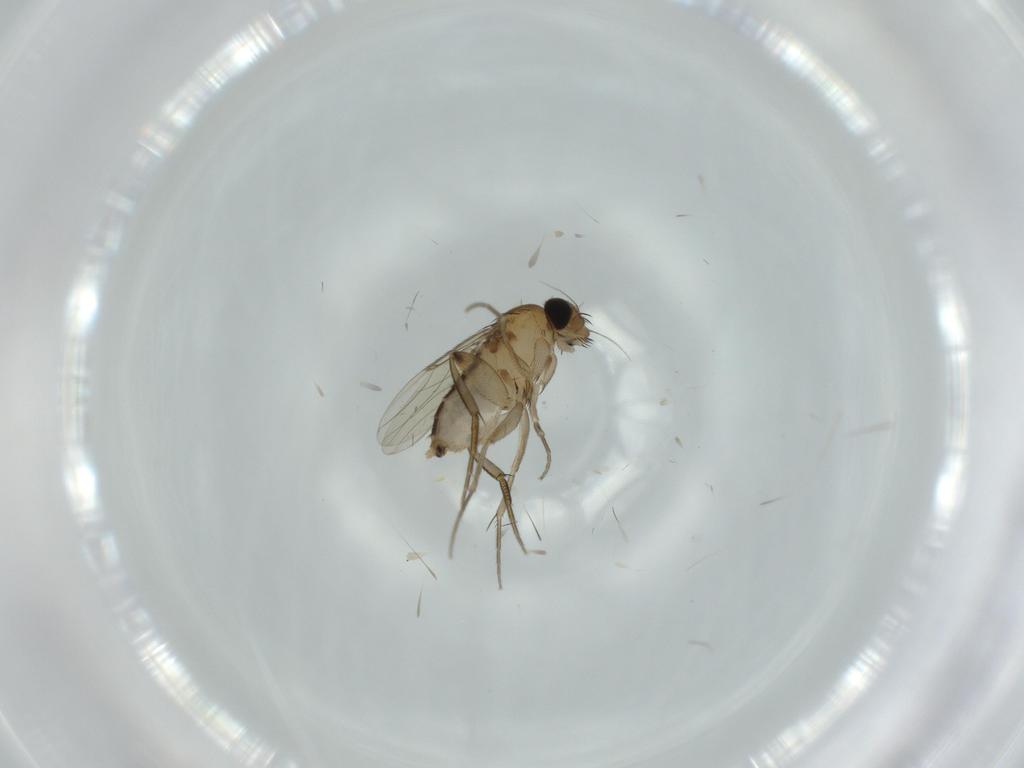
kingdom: Animalia
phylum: Arthropoda
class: Insecta
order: Diptera
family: Phoridae
